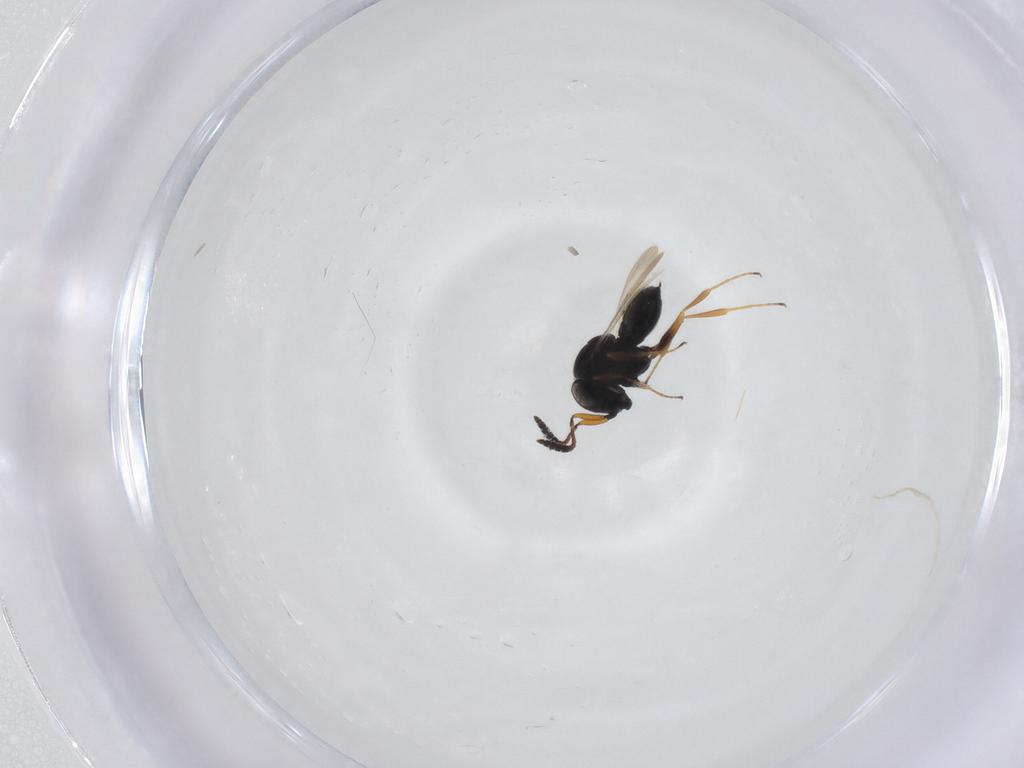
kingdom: Animalia
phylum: Arthropoda
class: Insecta
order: Hymenoptera
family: Scelionidae
